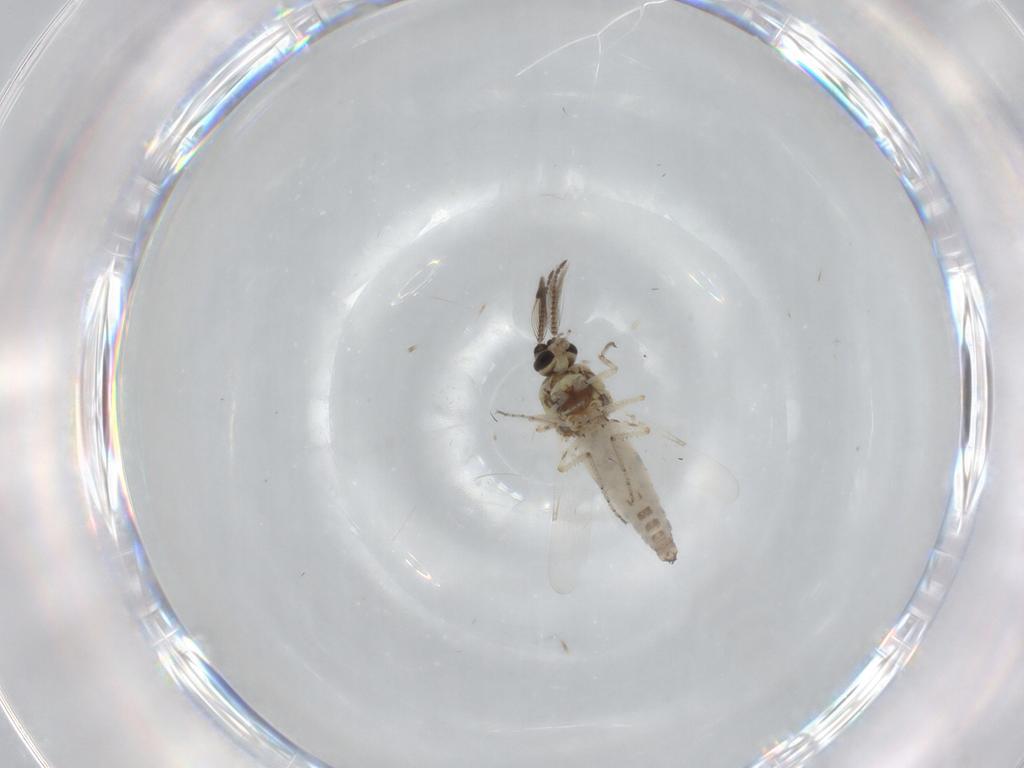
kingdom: Animalia
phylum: Arthropoda
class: Insecta
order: Diptera
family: Ceratopogonidae
